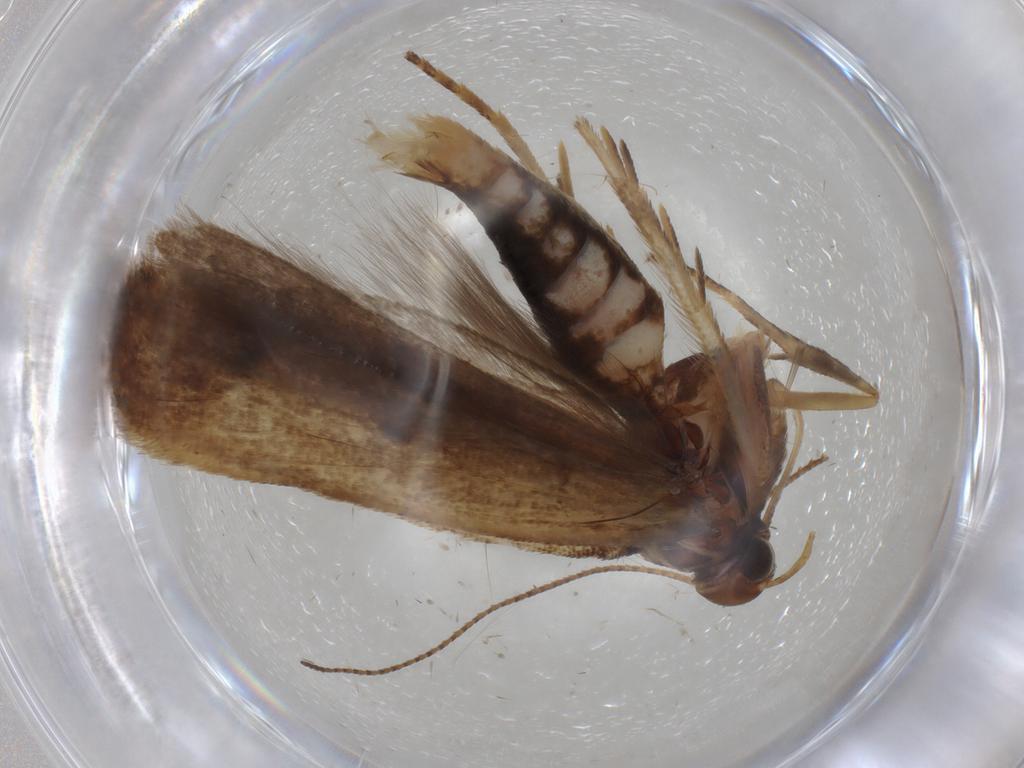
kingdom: Animalia
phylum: Arthropoda
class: Insecta
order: Lepidoptera
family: Gelechiidae
